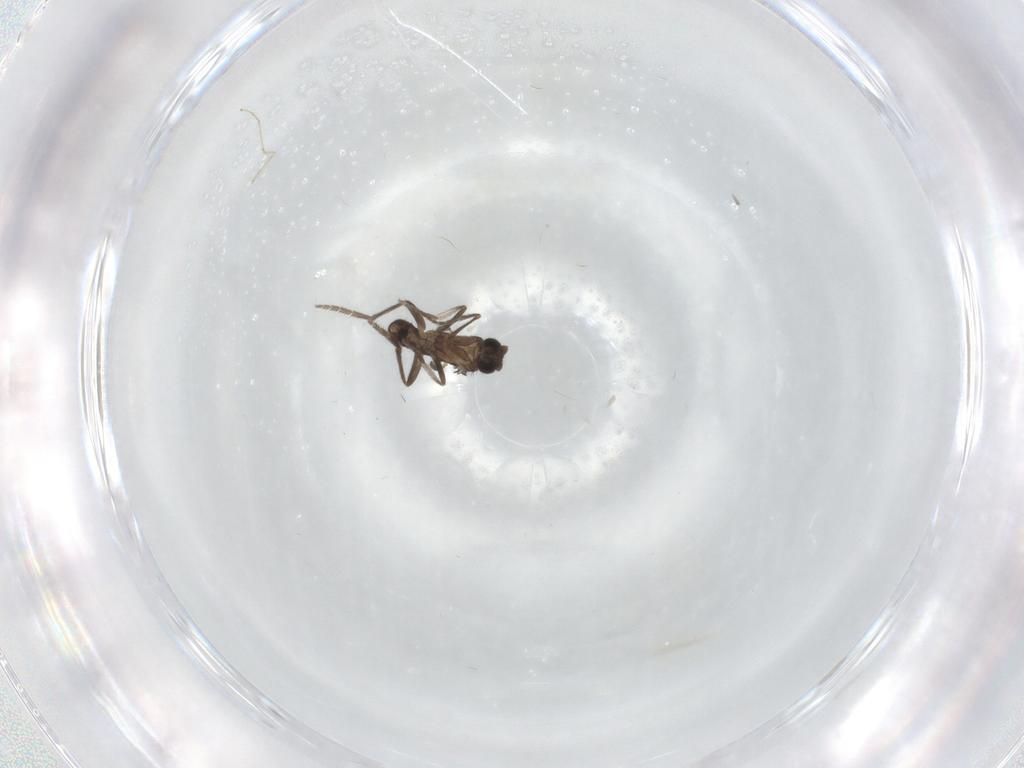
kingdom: Animalia
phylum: Arthropoda
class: Insecta
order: Diptera
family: Phoridae
